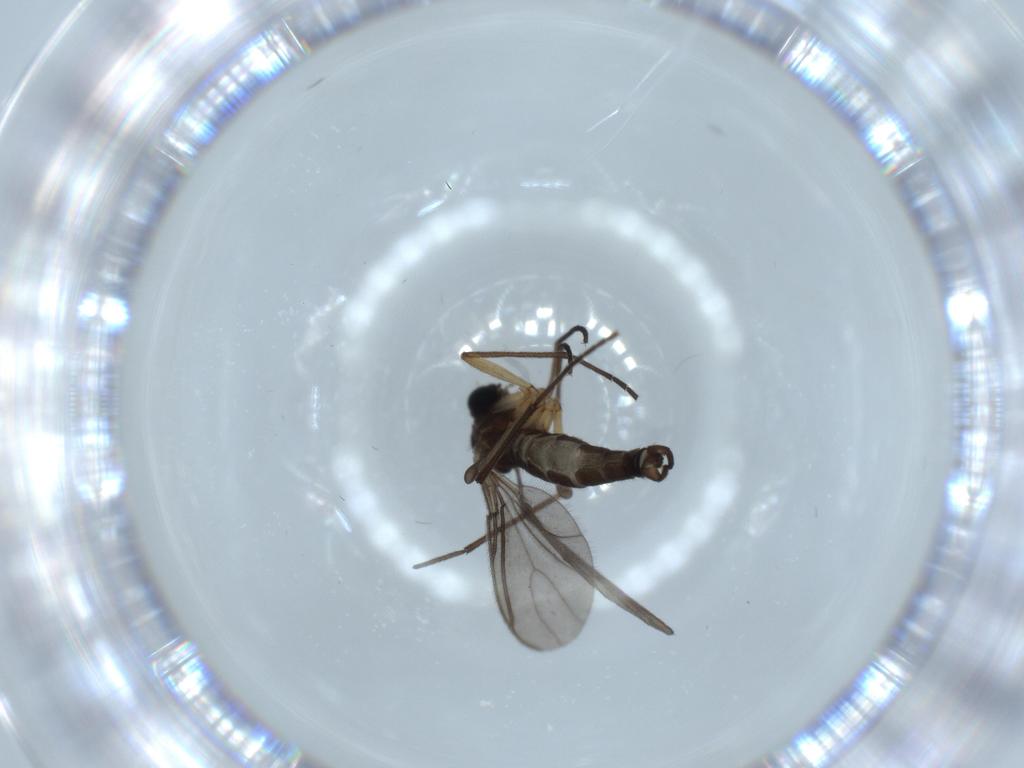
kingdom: Animalia
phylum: Arthropoda
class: Insecta
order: Diptera
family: Sciaridae
